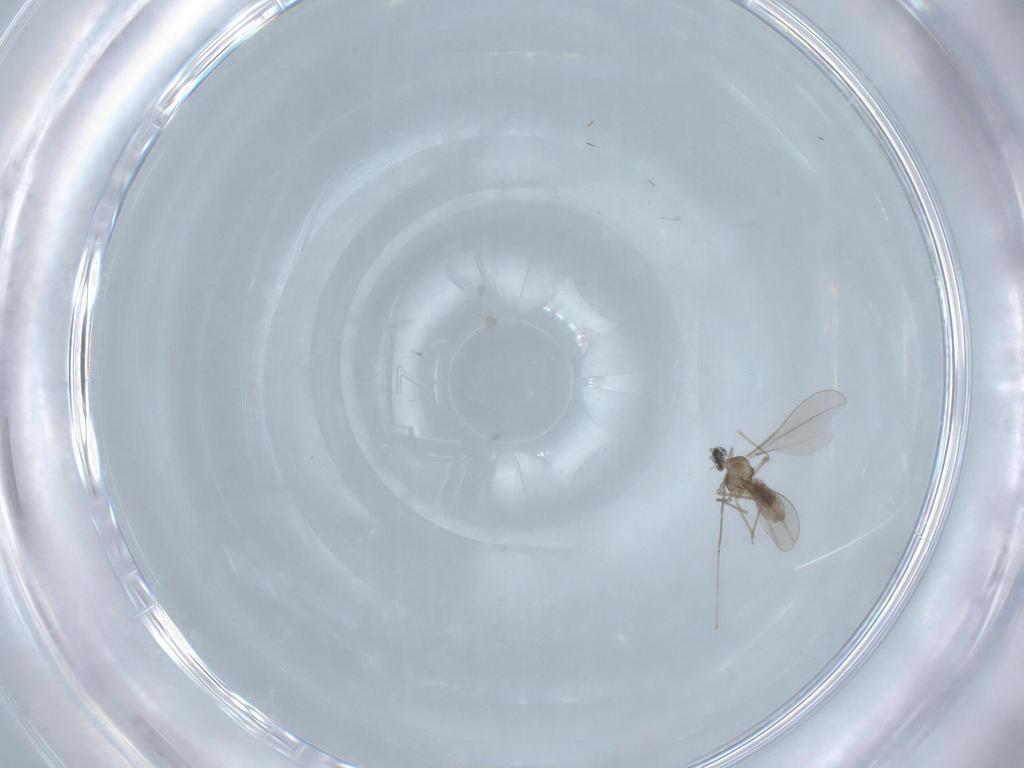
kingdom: Animalia
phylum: Arthropoda
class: Insecta
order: Diptera
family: Cecidomyiidae
